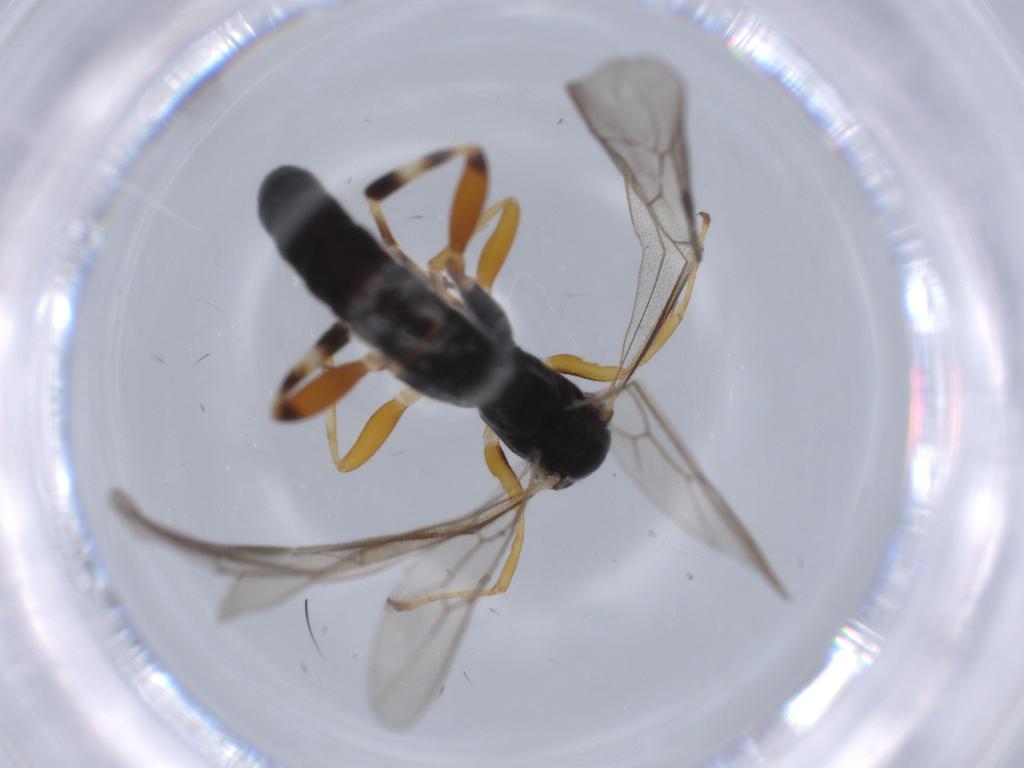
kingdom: Animalia
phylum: Arthropoda
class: Insecta
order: Hymenoptera
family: Ichneumonidae
